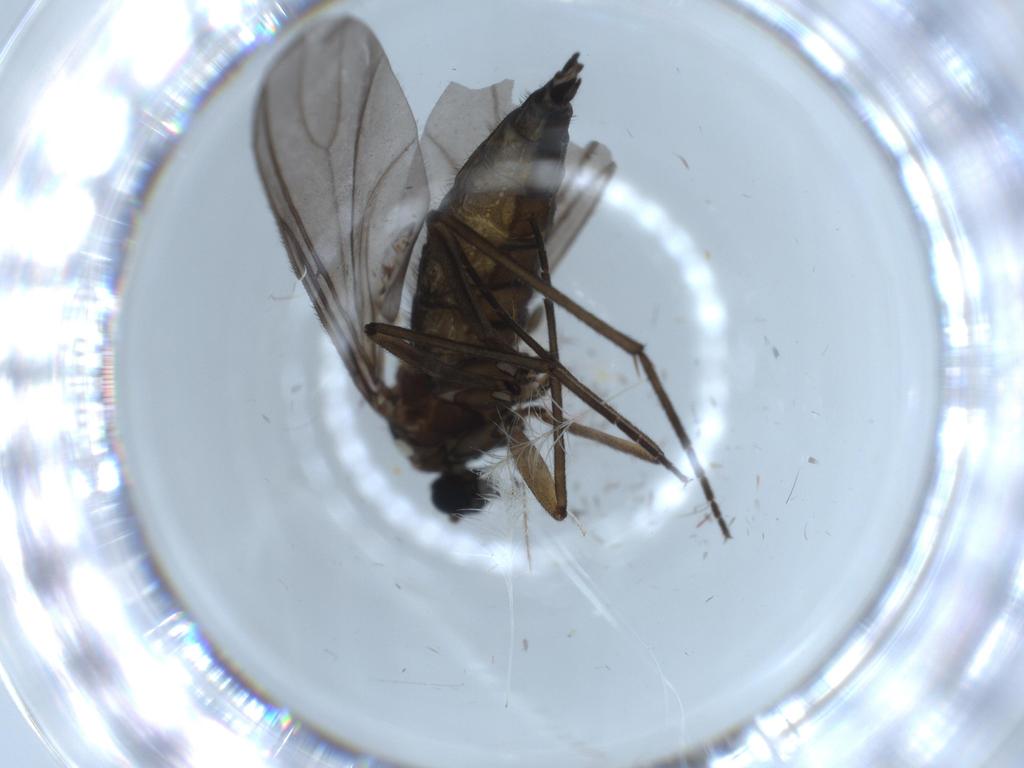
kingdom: Animalia
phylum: Arthropoda
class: Insecta
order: Diptera
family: Sciaridae
